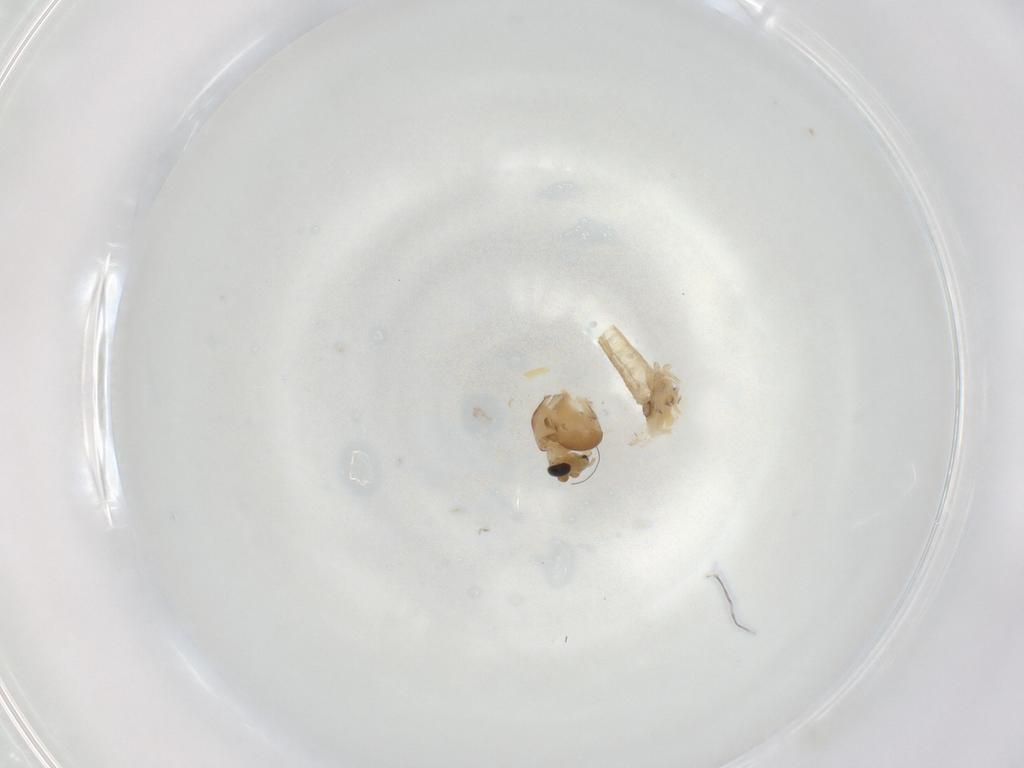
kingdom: Animalia
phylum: Arthropoda
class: Insecta
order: Diptera
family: Chironomidae
